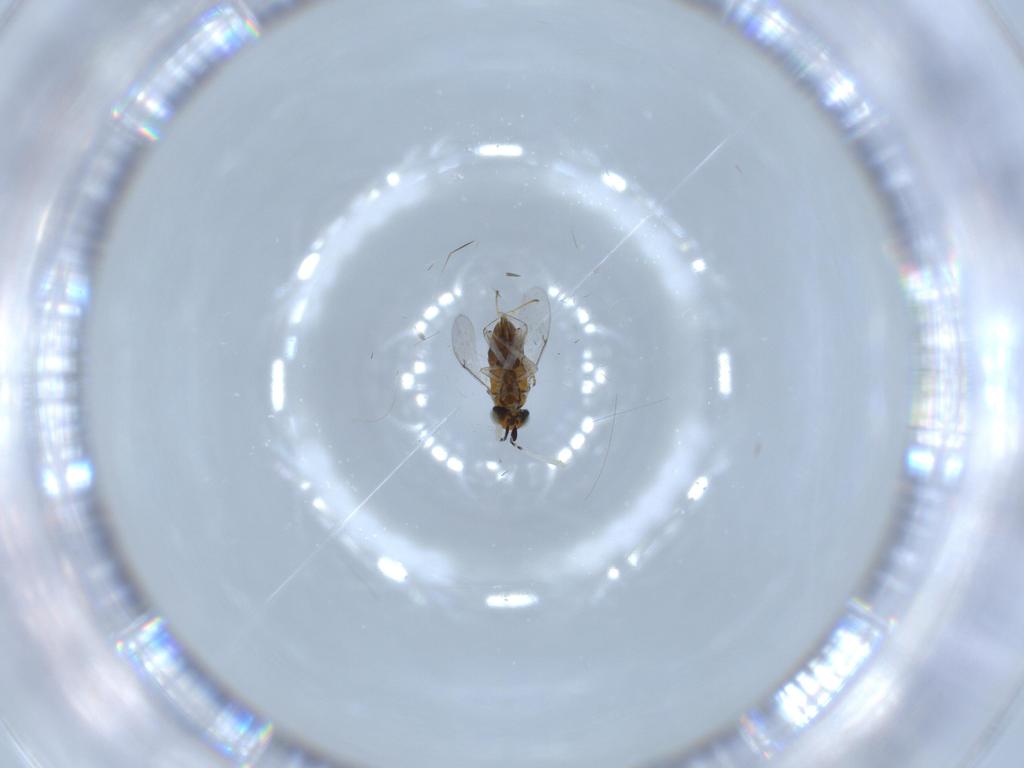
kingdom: Animalia
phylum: Arthropoda
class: Insecta
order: Hymenoptera
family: Encyrtidae
